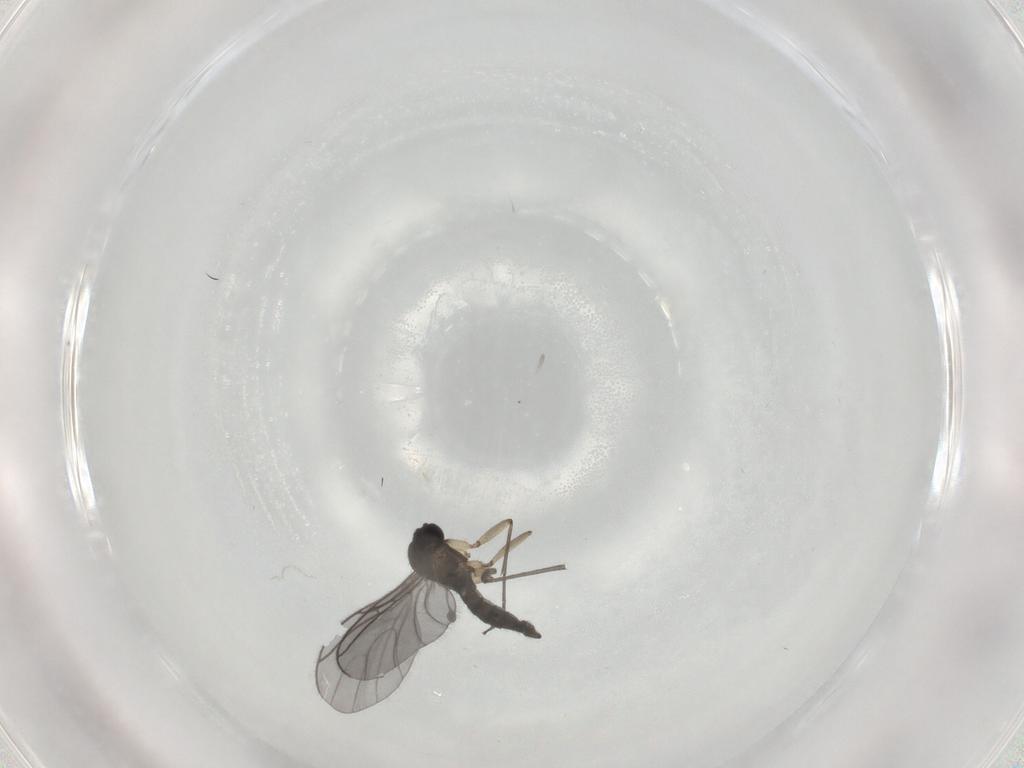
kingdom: Animalia
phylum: Arthropoda
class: Insecta
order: Diptera
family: Sciaridae
